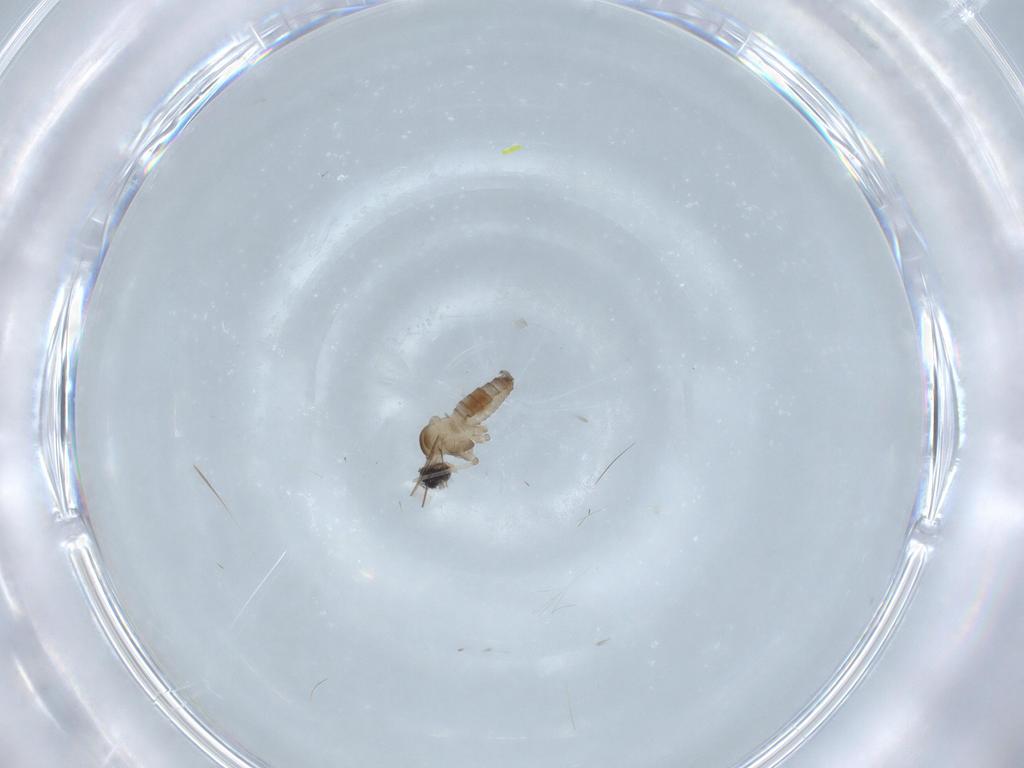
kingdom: Animalia
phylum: Arthropoda
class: Insecta
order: Diptera
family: Cecidomyiidae
